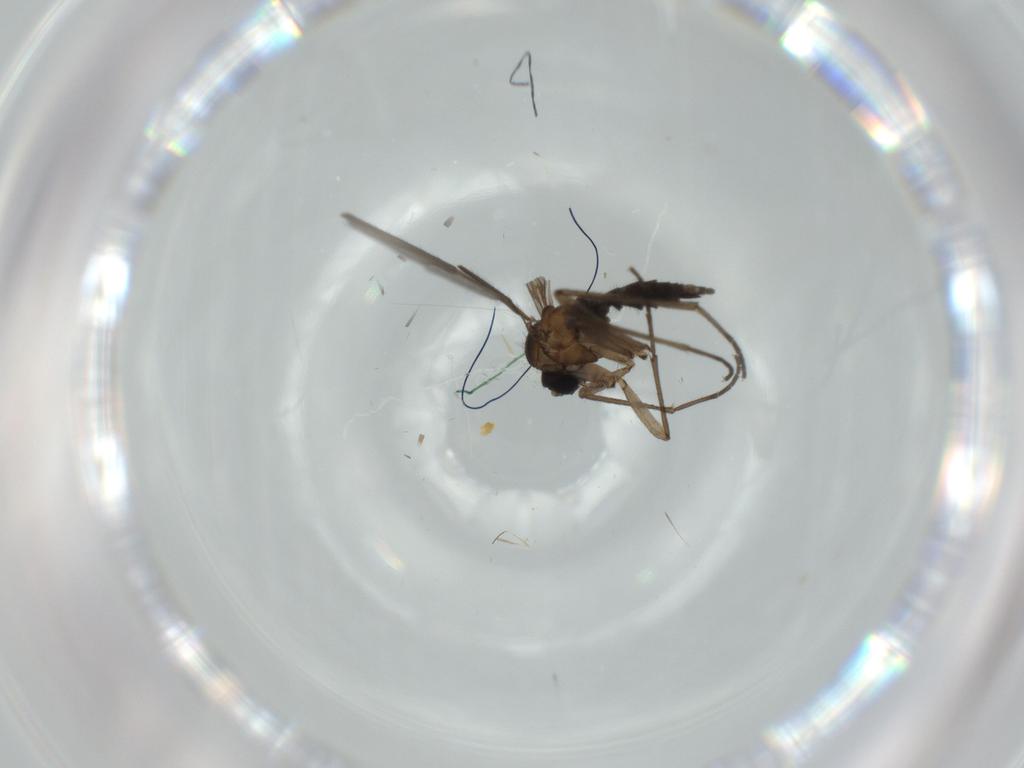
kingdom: Animalia
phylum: Arthropoda
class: Insecta
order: Diptera
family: Sciaridae
